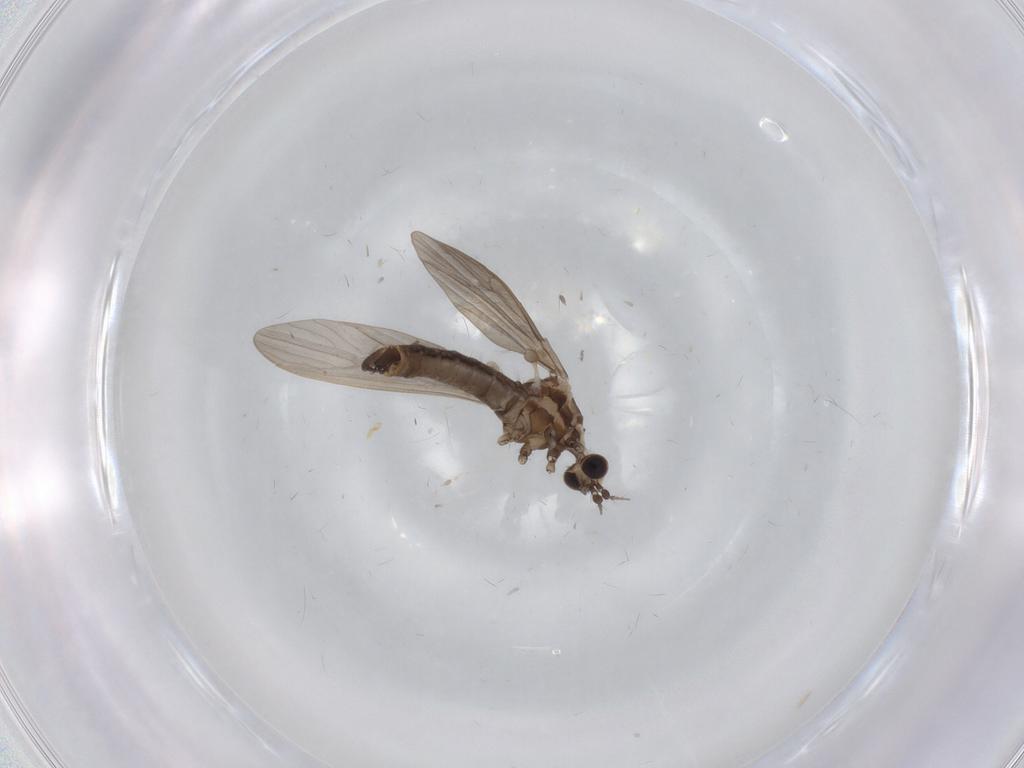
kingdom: Animalia
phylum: Arthropoda
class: Insecta
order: Diptera
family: Limoniidae
